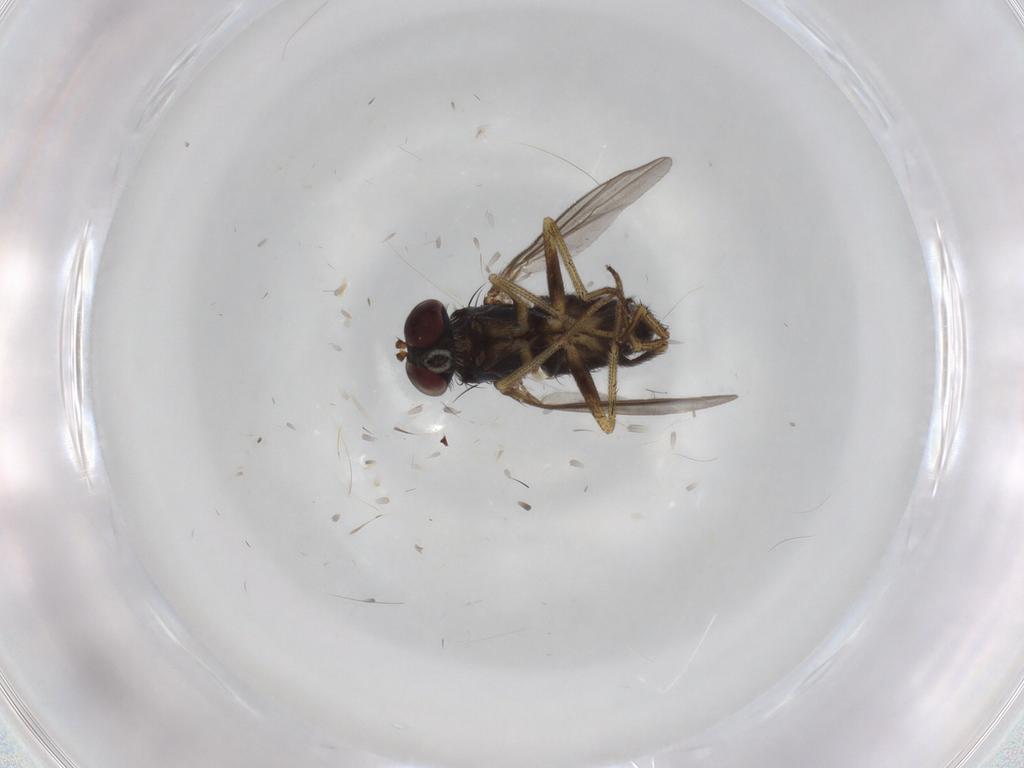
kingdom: Animalia
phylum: Arthropoda
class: Insecta
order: Diptera
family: Dolichopodidae
